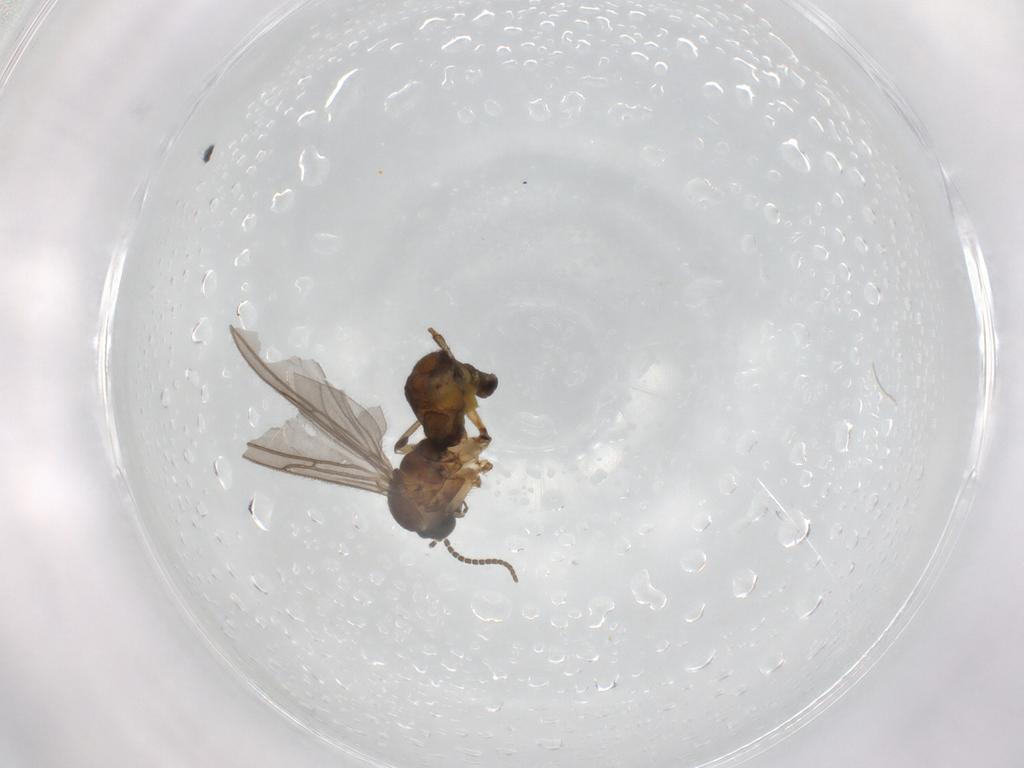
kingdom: Animalia
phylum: Arthropoda
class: Insecta
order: Diptera
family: Sciaridae
